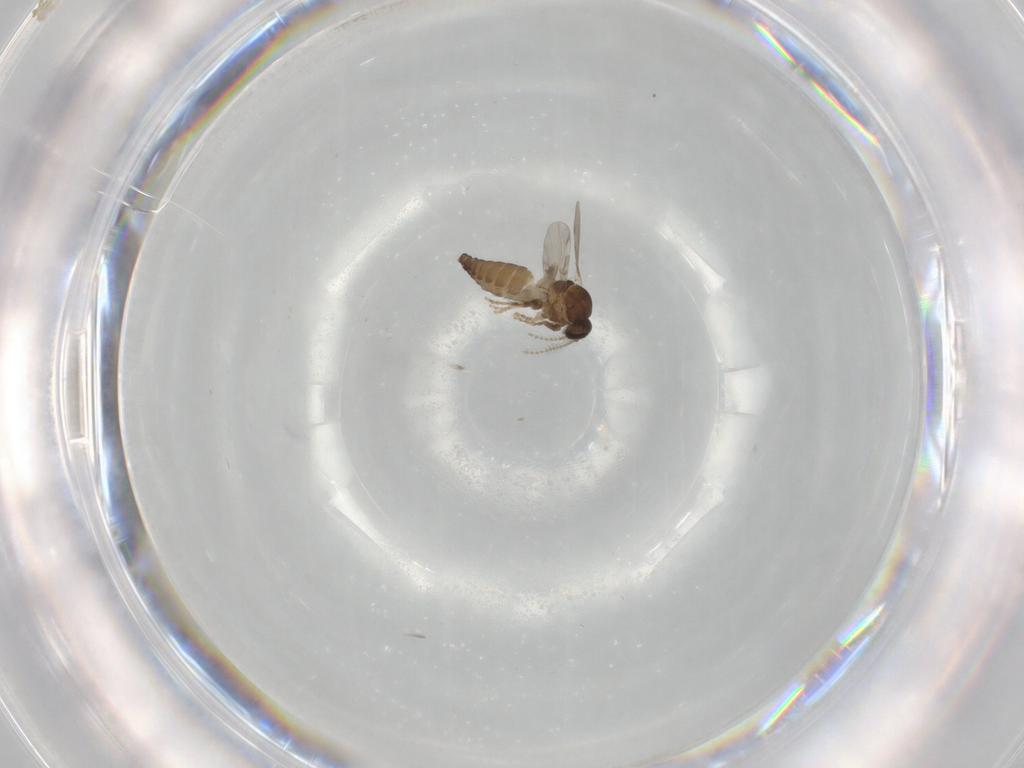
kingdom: Animalia
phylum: Arthropoda
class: Insecta
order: Diptera
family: Ceratopogonidae
